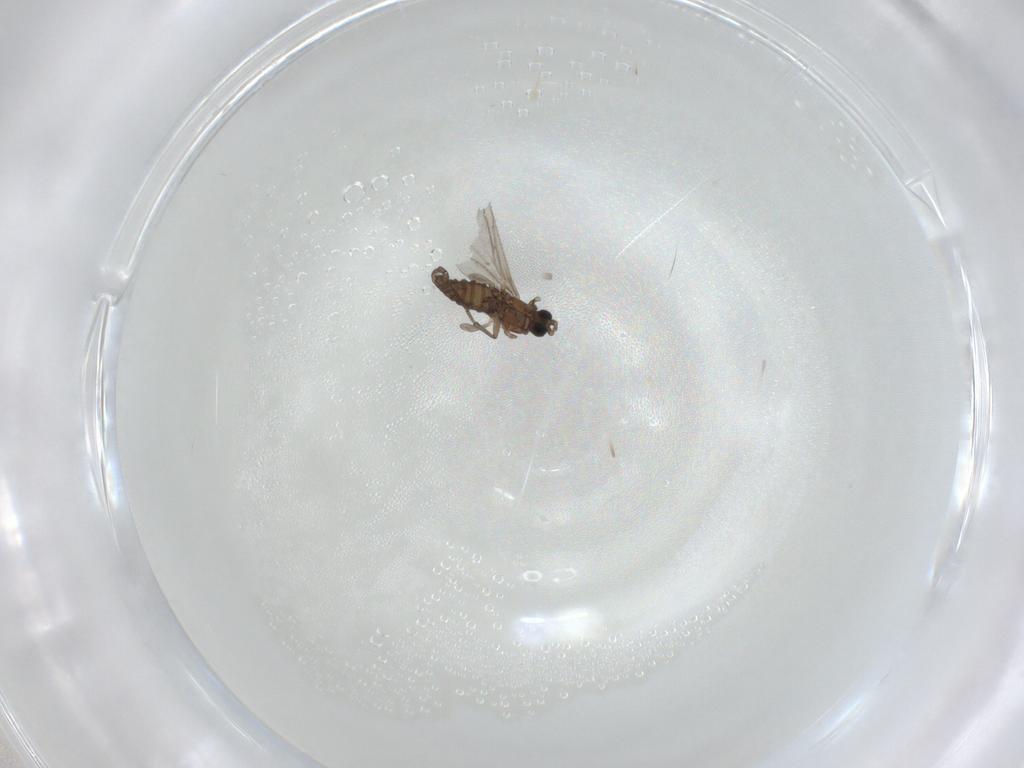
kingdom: Animalia
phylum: Arthropoda
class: Insecta
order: Diptera
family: Sciaridae
